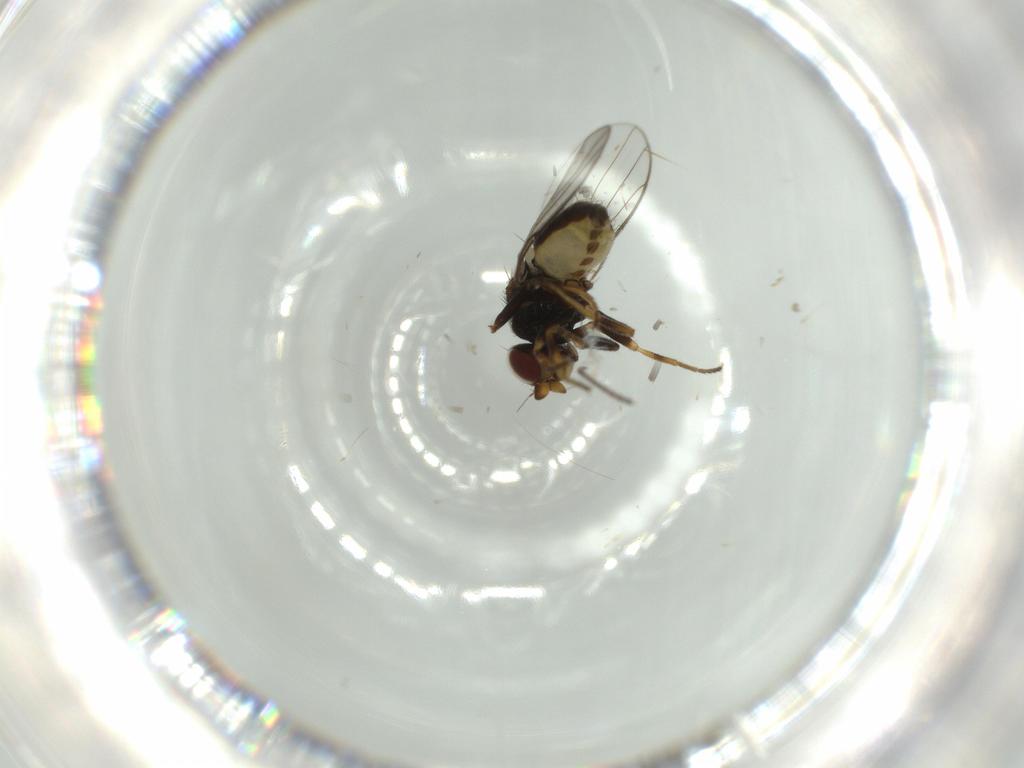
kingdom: Animalia
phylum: Arthropoda
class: Insecta
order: Diptera
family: Chloropidae
